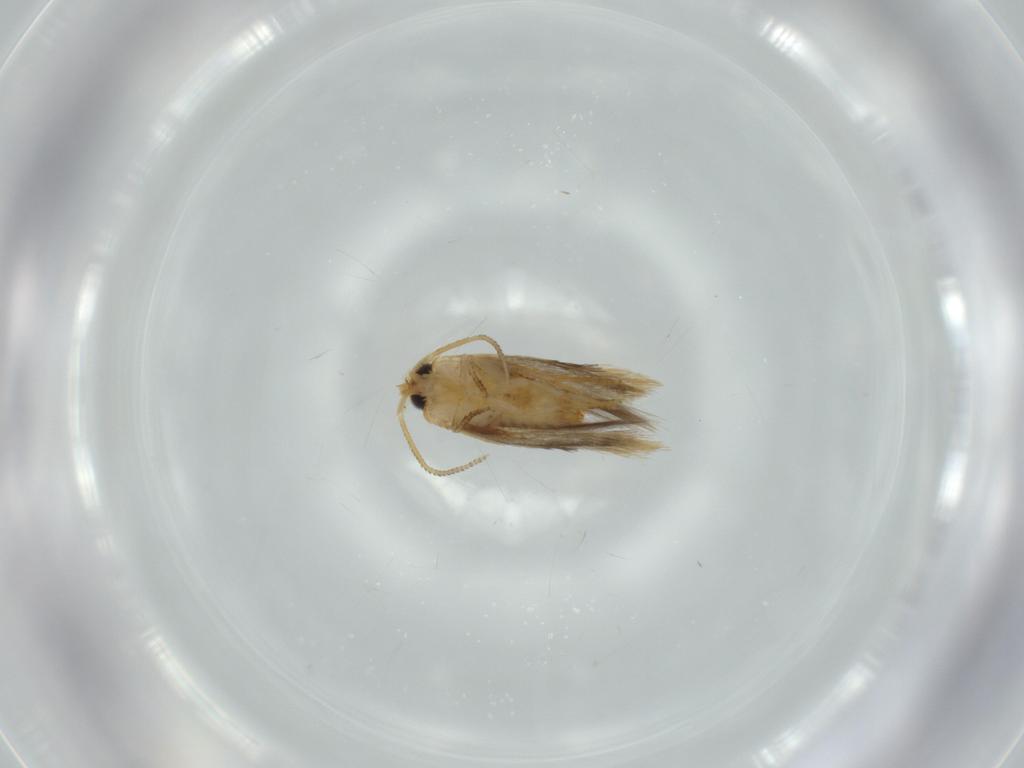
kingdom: Animalia
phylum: Arthropoda
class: Insecta
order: Lepidoptera
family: Nepticulidae
